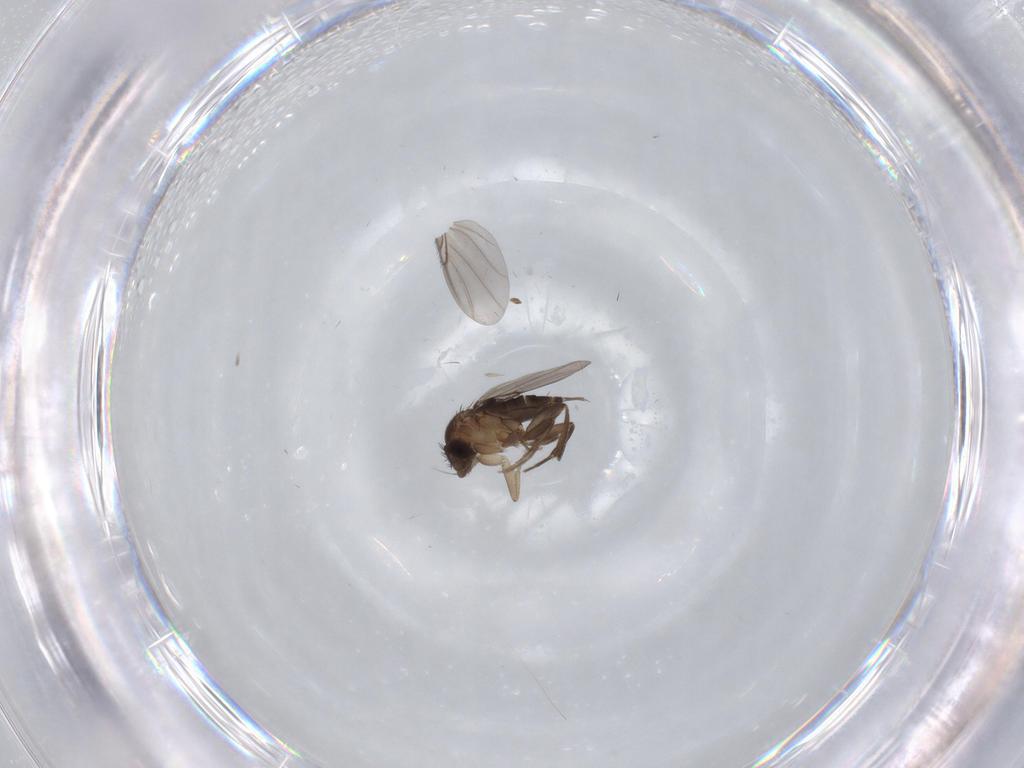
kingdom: Animalia
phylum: Arthropoda
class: Insecta
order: Diptera
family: Phoridae
